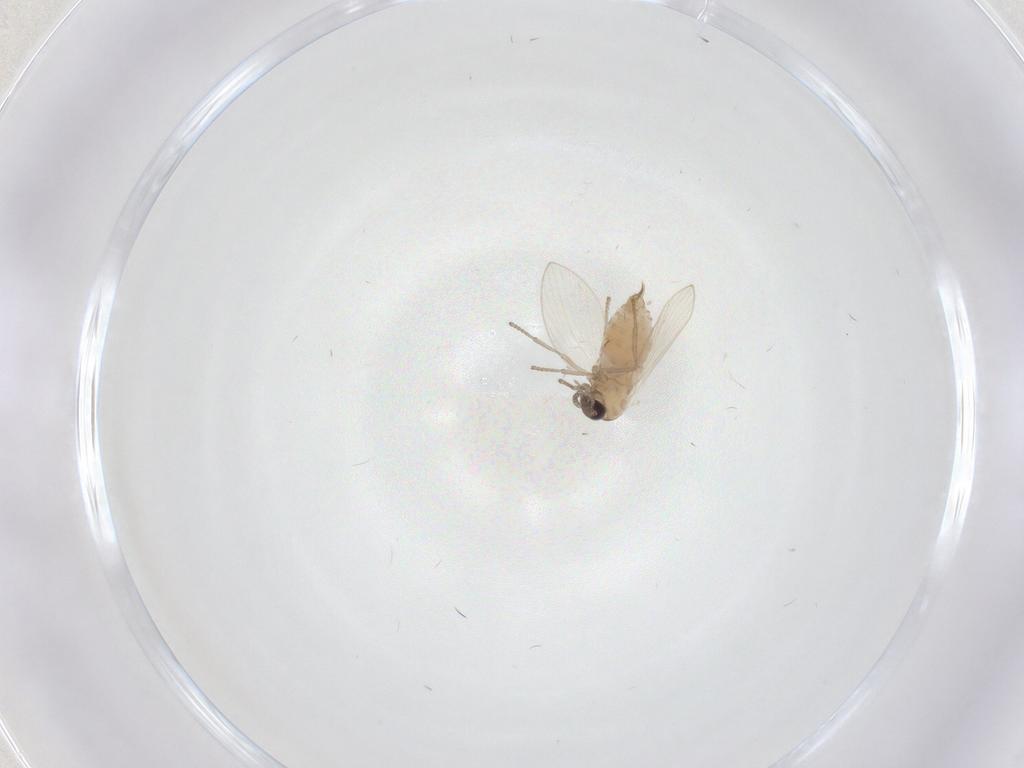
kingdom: Animalia
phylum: Arthropoda
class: Insecta
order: Diptera
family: Psychodidae
